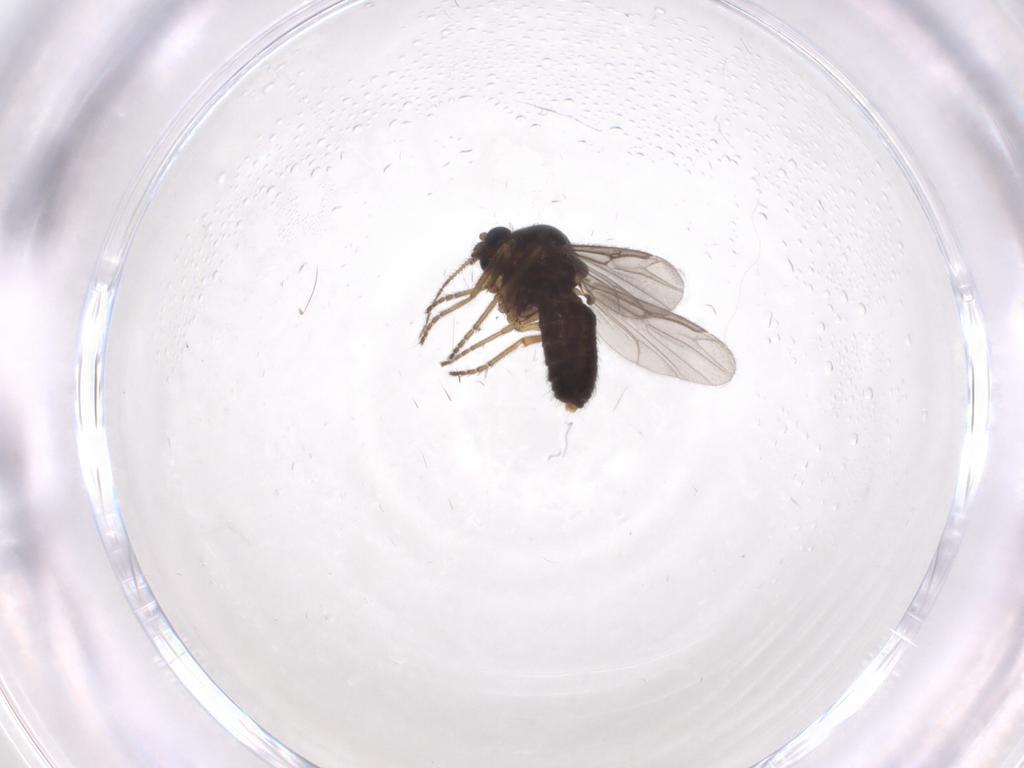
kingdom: Animalia
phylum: Arthropoda
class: Insecta
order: Diptera
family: Ceratopogonidae
